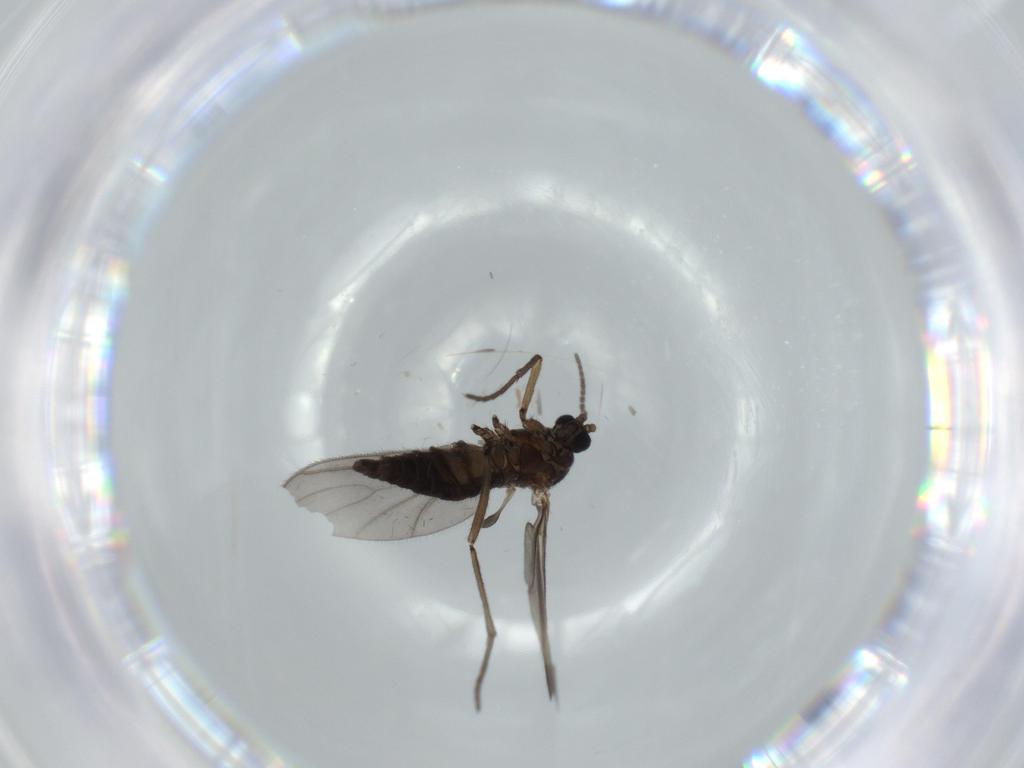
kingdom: Animalia
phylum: Arthropoda
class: Insecta
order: Diptera
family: Sciaridae
